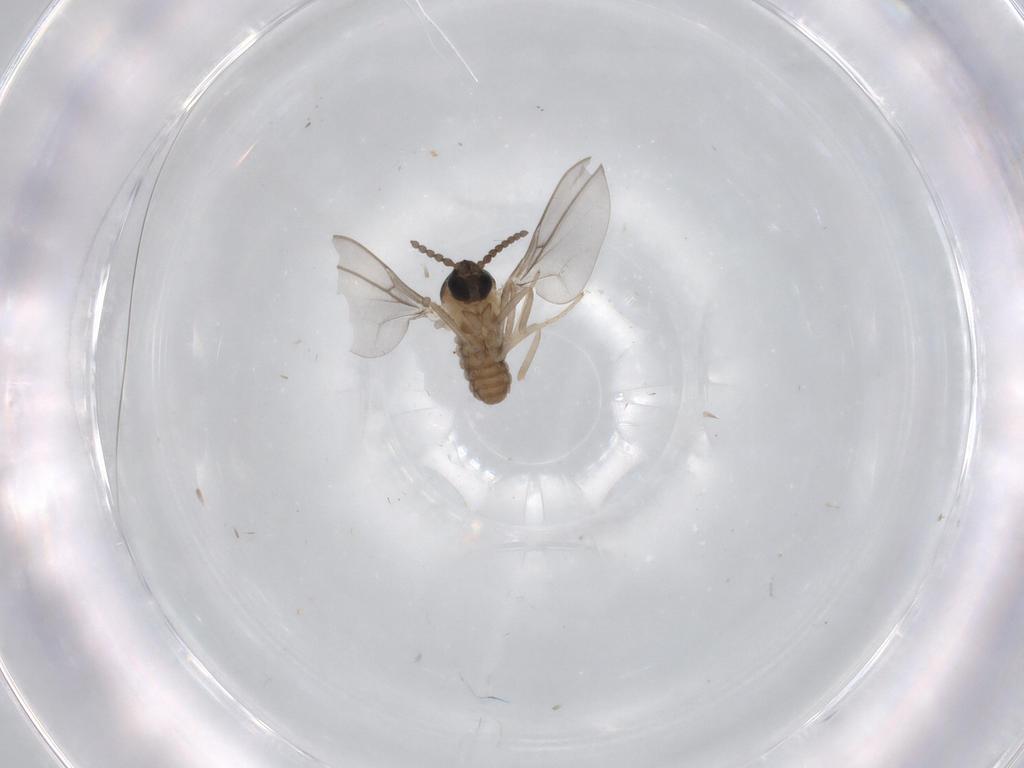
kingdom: Animalia
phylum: Arthropoda
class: Insecta
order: Diptera
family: Cecidomyiidae
